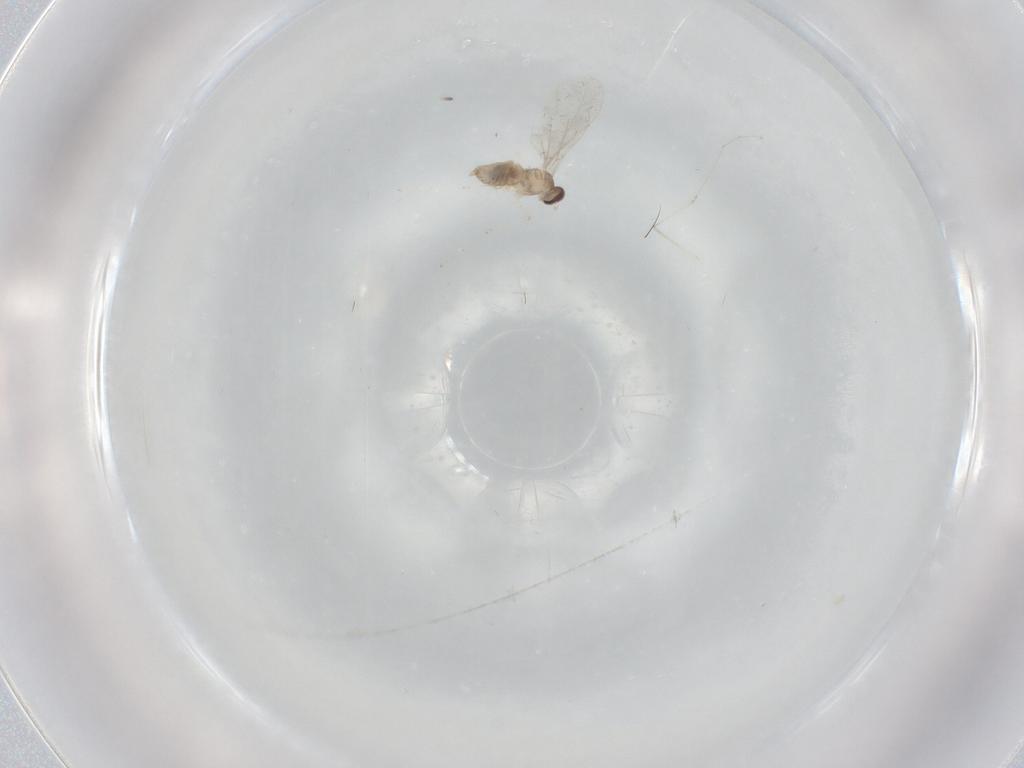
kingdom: Animalia
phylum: Arthropoda
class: Insecta
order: Diptera
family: Cecidomyiidae
